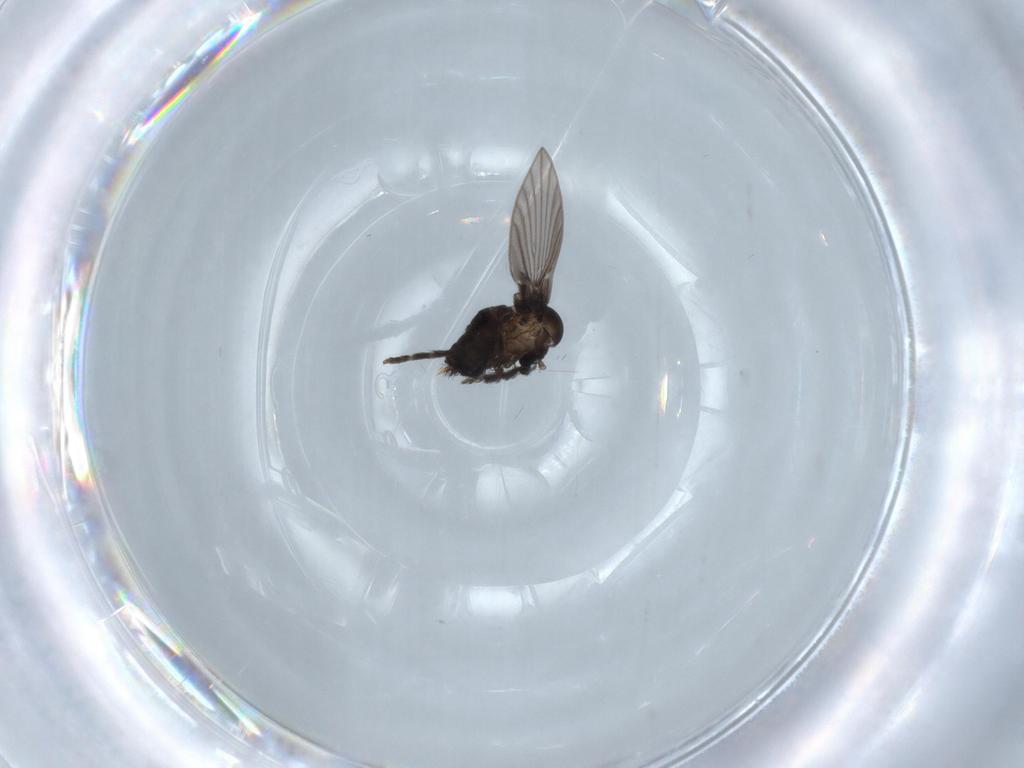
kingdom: Animalia
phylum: Arthropoda
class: Insecta
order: Diptera
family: Psychodidae
